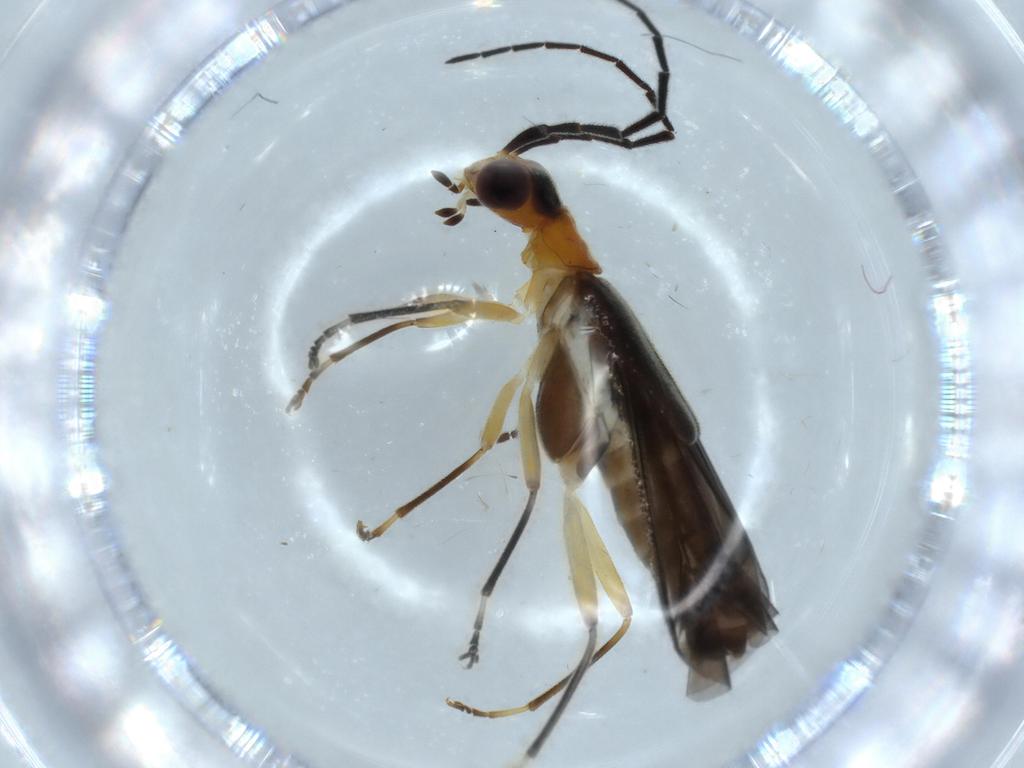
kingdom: Animalia
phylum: Arthropoda
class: Insecta
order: Coleoptera
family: Cantharidae
